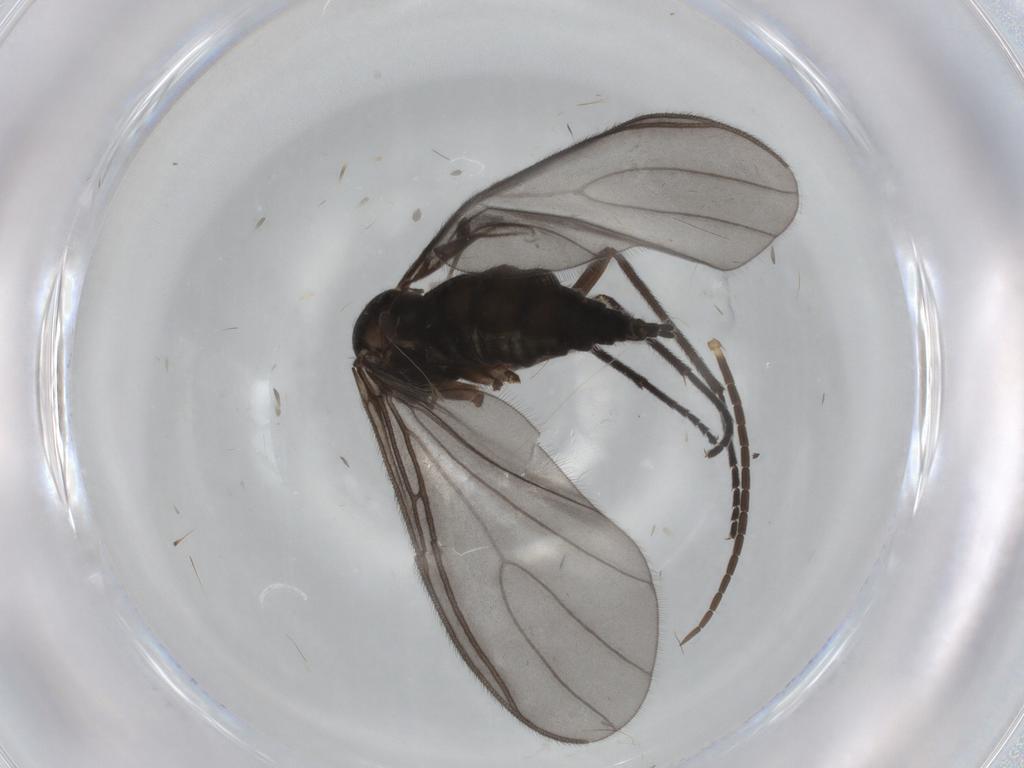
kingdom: Animalia
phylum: Arthropoda
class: Insecta
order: Diptera
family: Sciaridae
